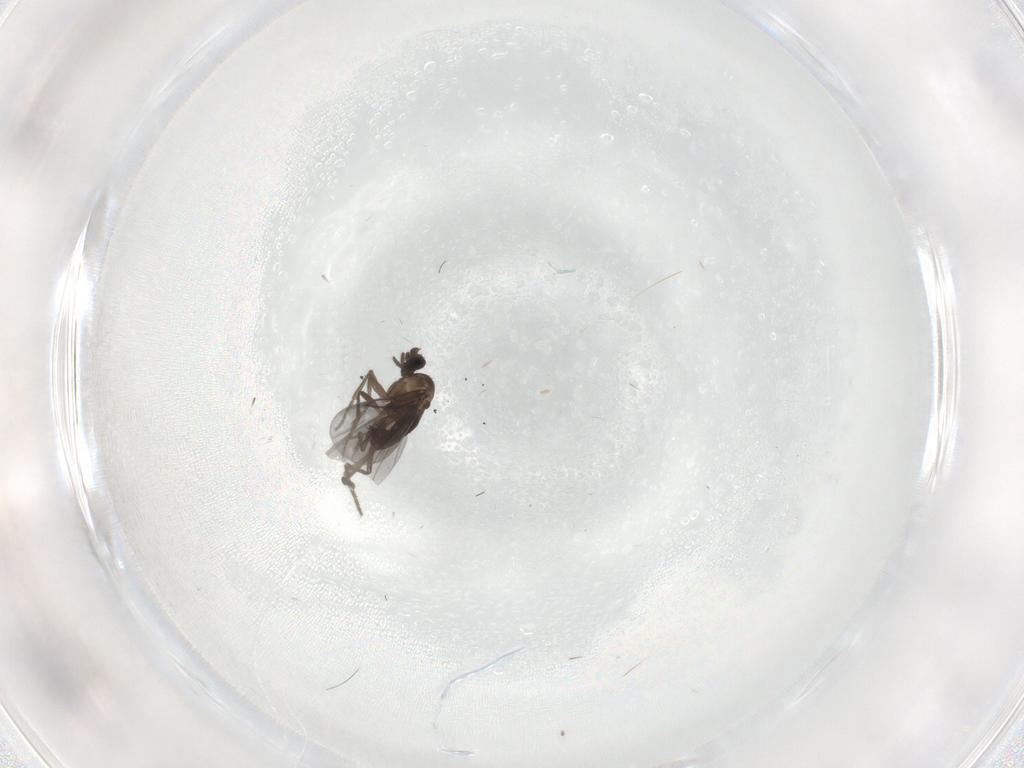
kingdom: Animalia
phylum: Arthropoda
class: Insecta
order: Diptera
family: Phoridae
